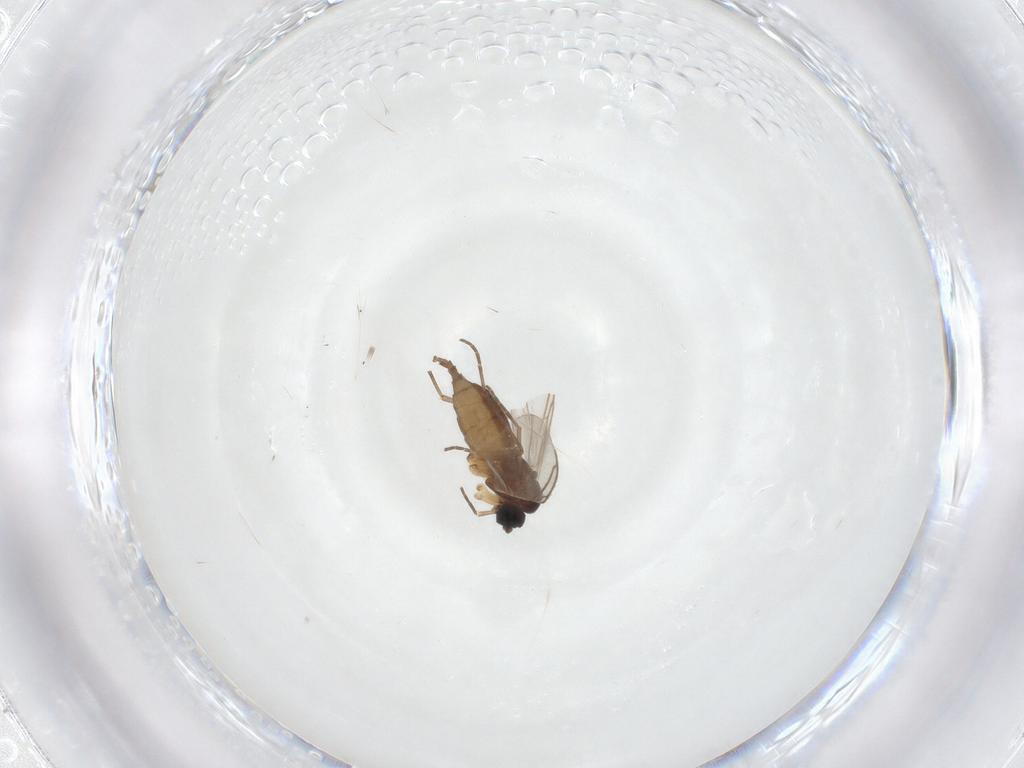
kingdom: Animalia
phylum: Arthropoda
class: Insecta
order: Diptera
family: Sciaridae
